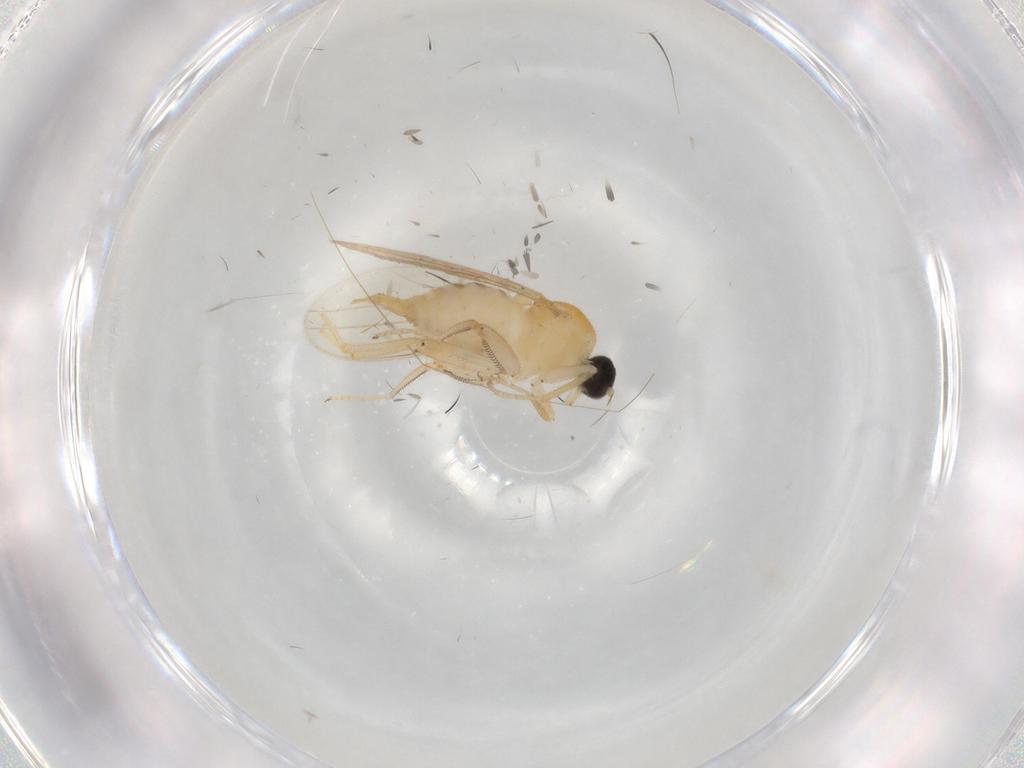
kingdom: Animalia
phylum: Arthropoda
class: Insecta
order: Diptera
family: Hybotidae
